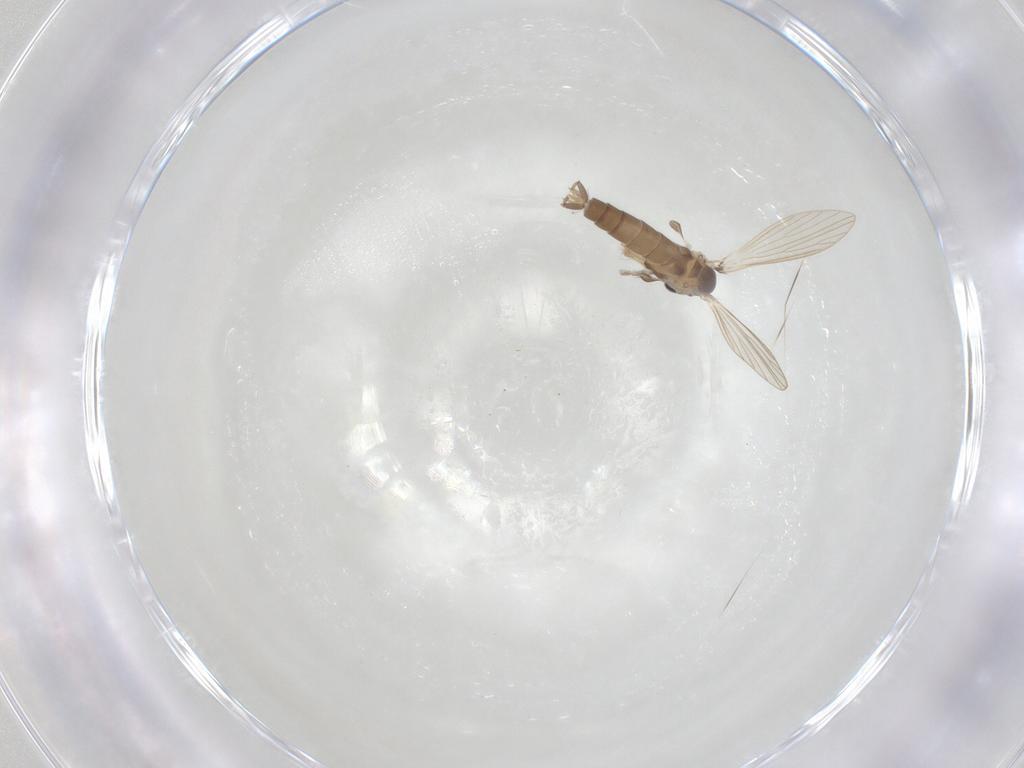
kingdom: Animalia
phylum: Arthropoda
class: Insecta
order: Diptera
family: Psychodidae
